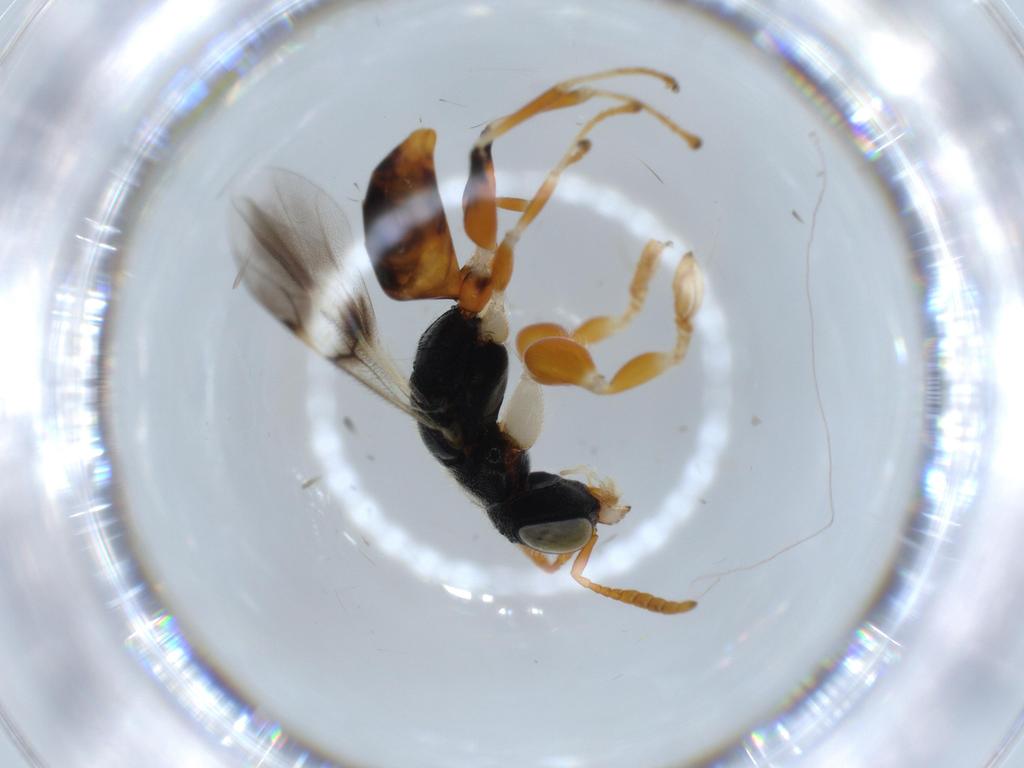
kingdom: Animalia
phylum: Arthropoda
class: Insecta
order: Hymenoptera
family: Dryinidae
